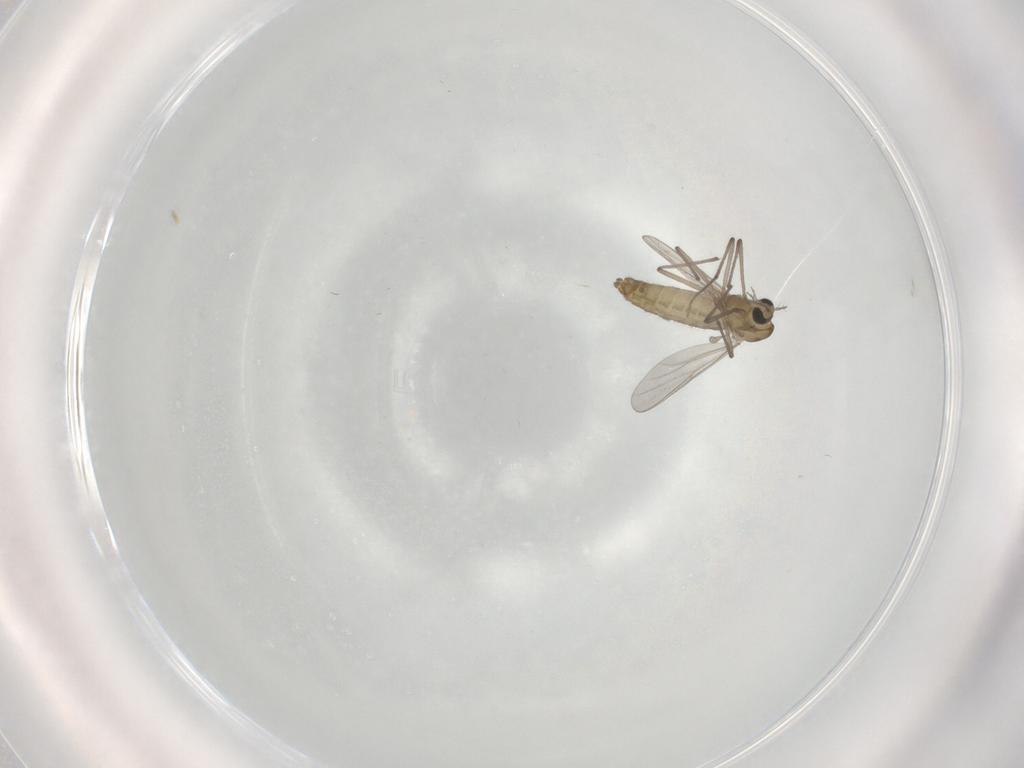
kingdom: Animalia
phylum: Arthropoda
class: Insecta
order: Diptera
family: Dolichopodidae
